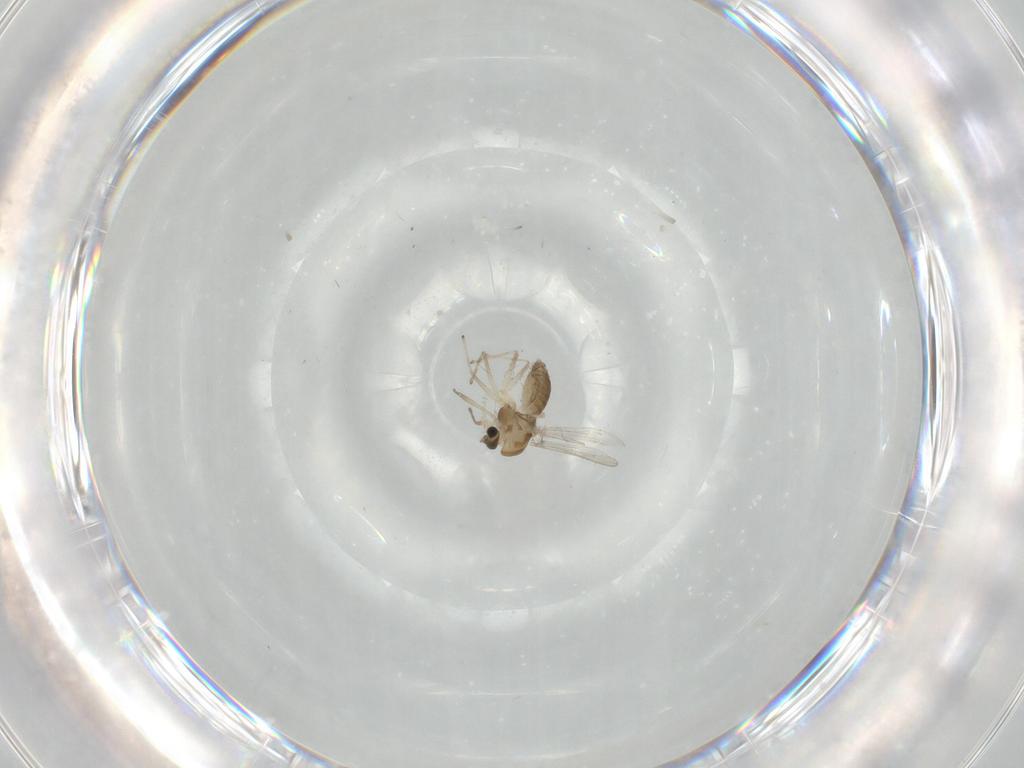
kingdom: Animalia
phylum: Arthropoda
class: Insecta
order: Diptera
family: Chironomidae
